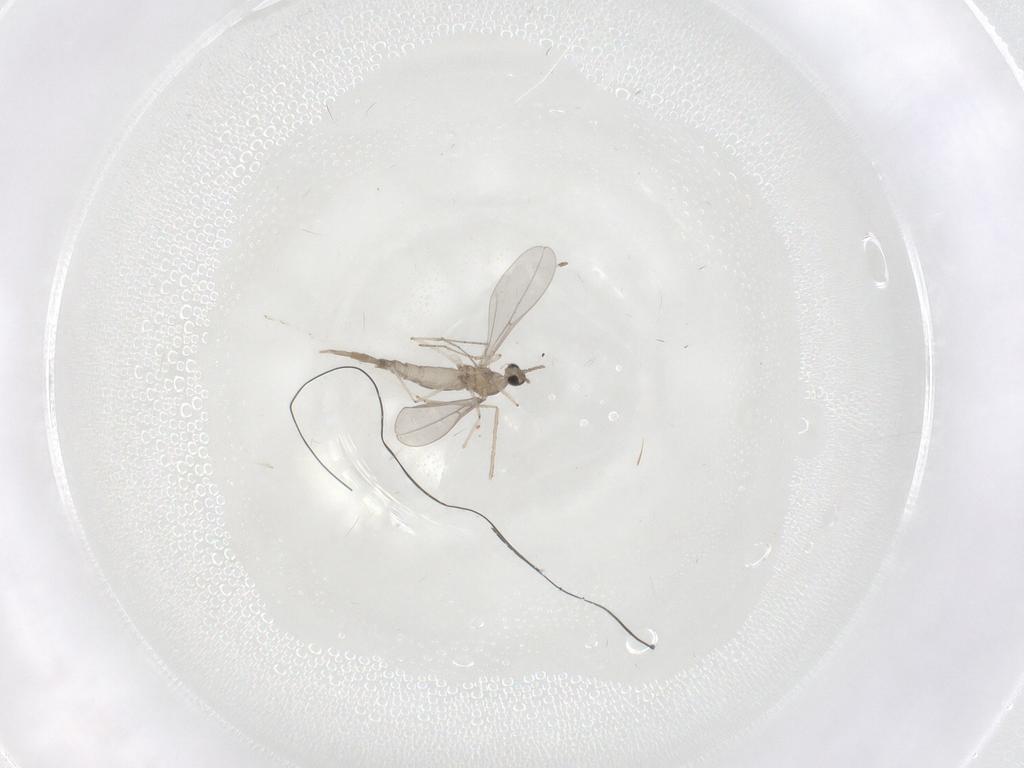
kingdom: Animalia
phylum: Arthropoda
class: Insecta
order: Diptera
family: Cecidomyiidae
